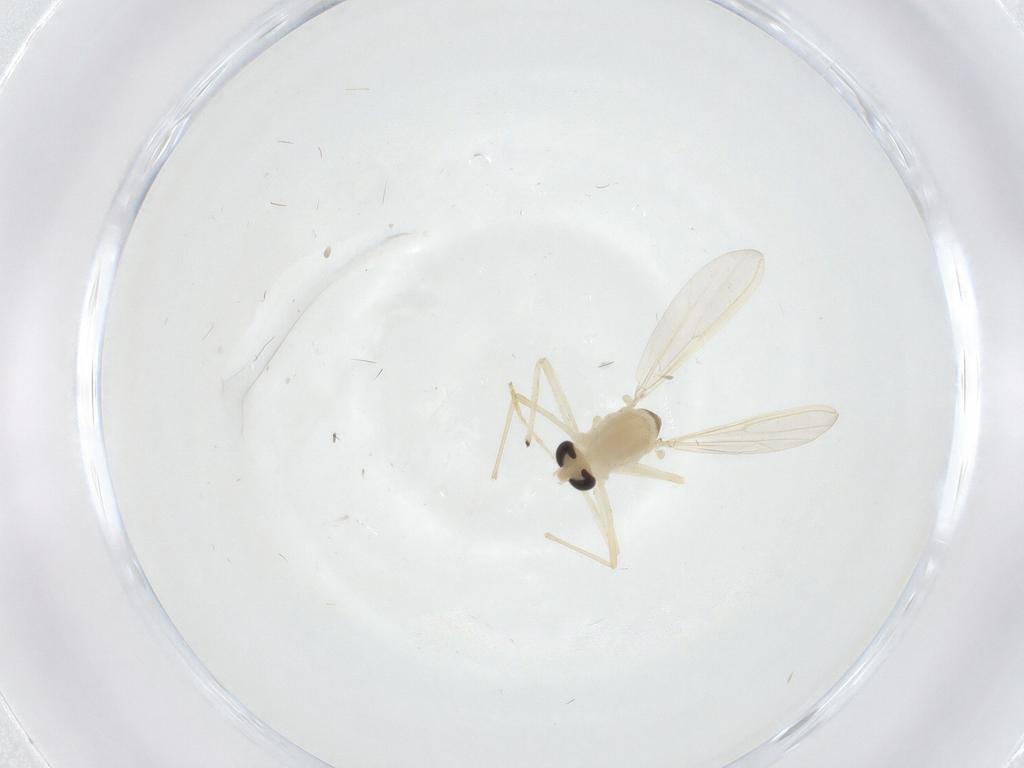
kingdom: Animalia
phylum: Arthropoda
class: Insecta
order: Diptera
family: Chironomidae
